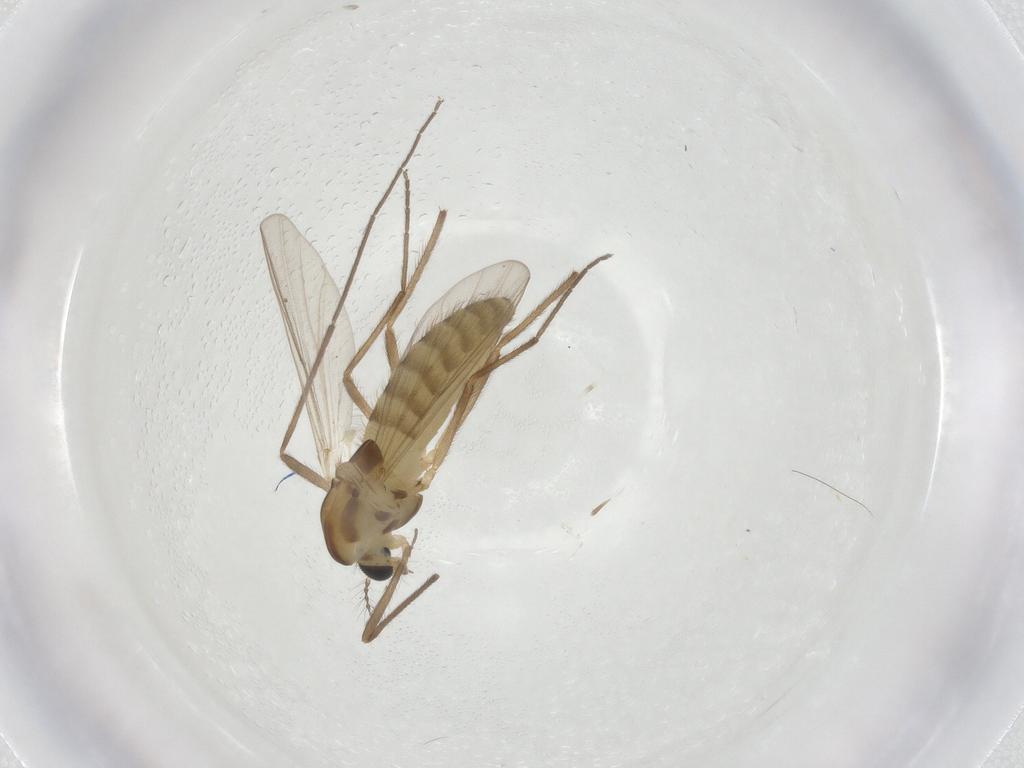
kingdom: Animalia
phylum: Arthropoda
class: Insecta
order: Diptera
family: Chironomidae
